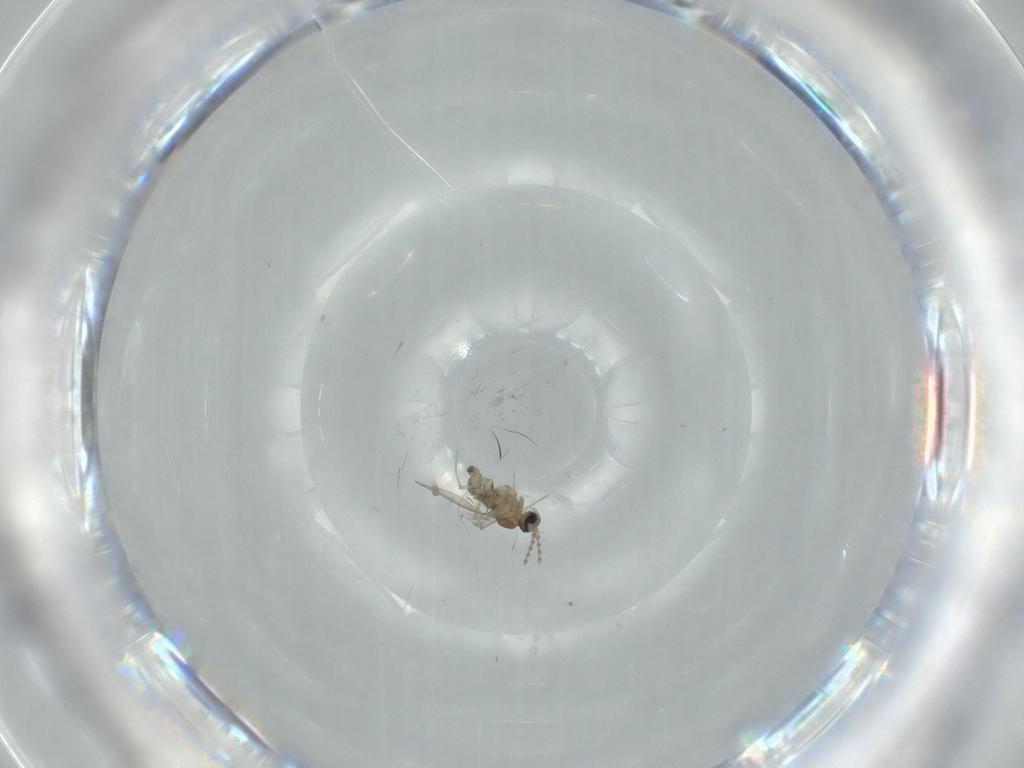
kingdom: Animalia
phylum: Arthropoda
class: Insecta
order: Diptera
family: Cecidomyiidae
